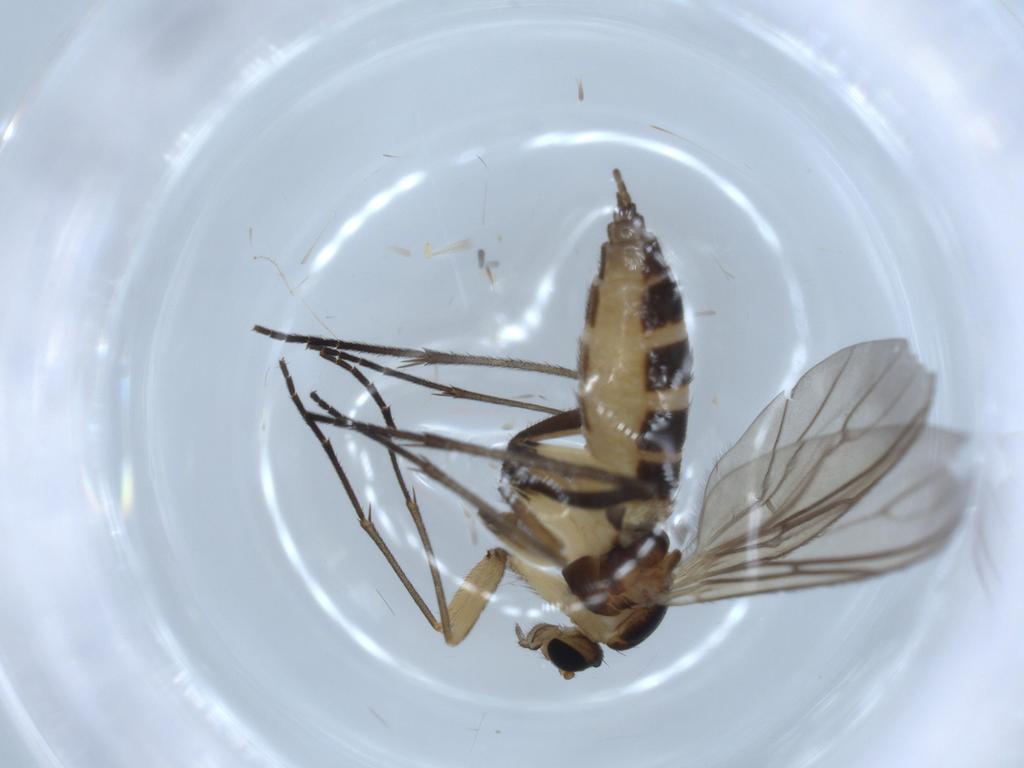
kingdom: Animalia
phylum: Arthropoda
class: Insecta
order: Diptera
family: Sciaridae
